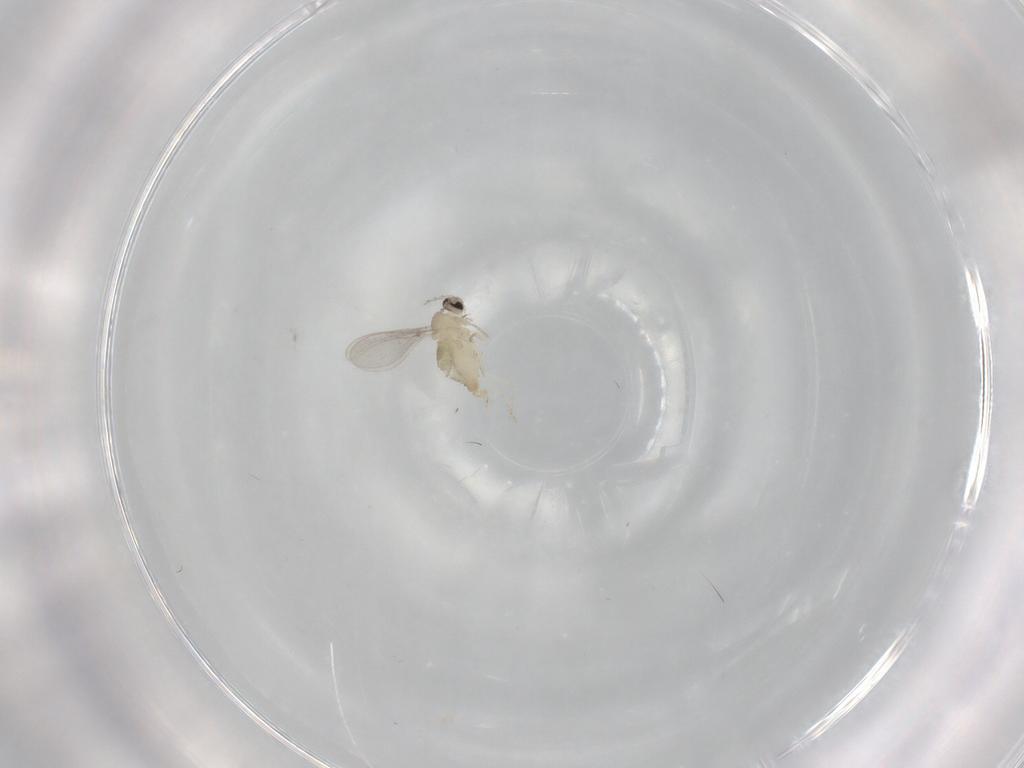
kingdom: Animalia
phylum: Arthropoda
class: Insecta
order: Diptera
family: Cecidomyiidae
